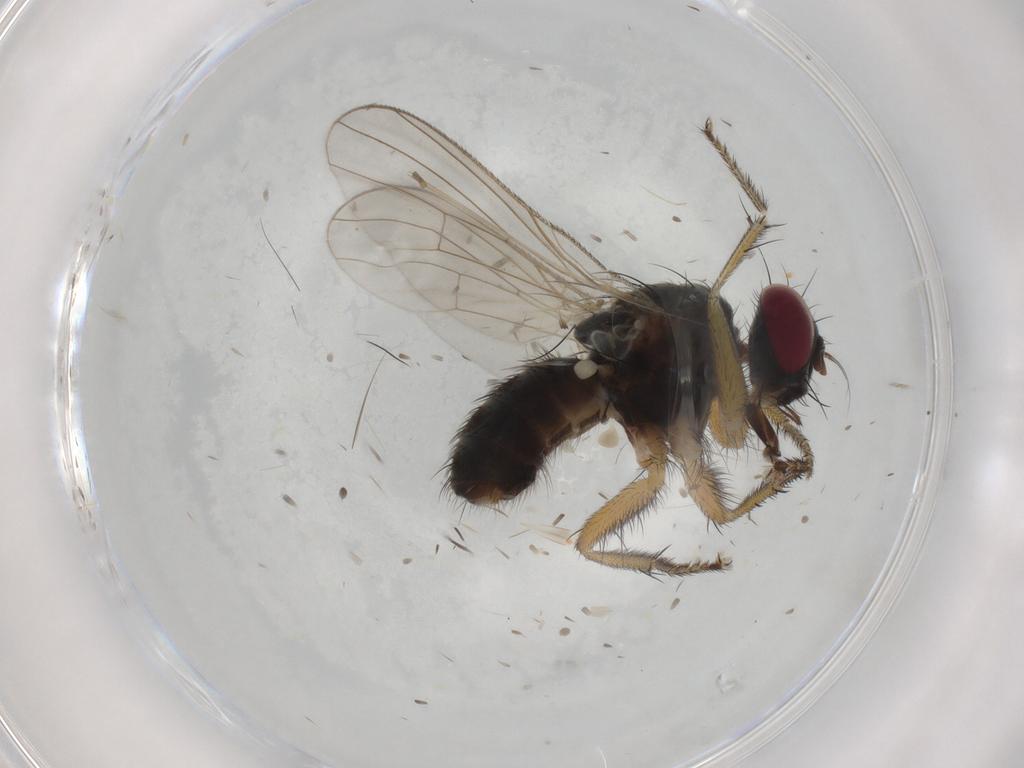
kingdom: Animalia
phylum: Arthropoda
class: Insecta
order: Diptera
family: Muscidae
